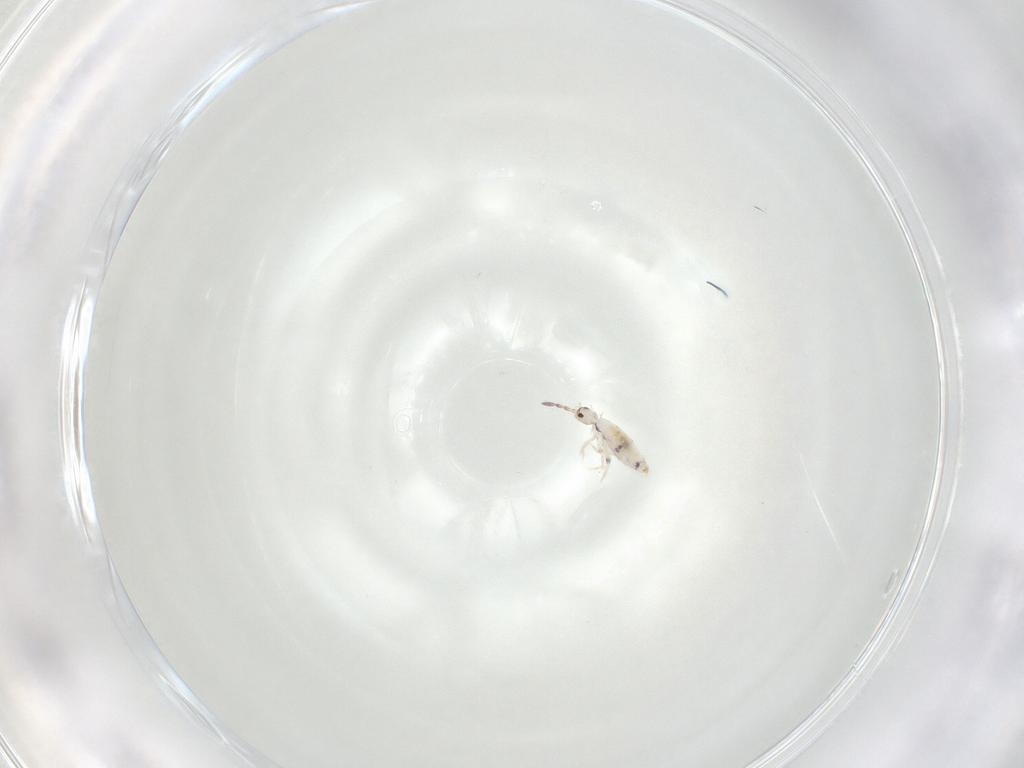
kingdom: Animalia
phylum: Arthropoda
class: Collembola
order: Entomobryomorpha
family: Entomobryidae
